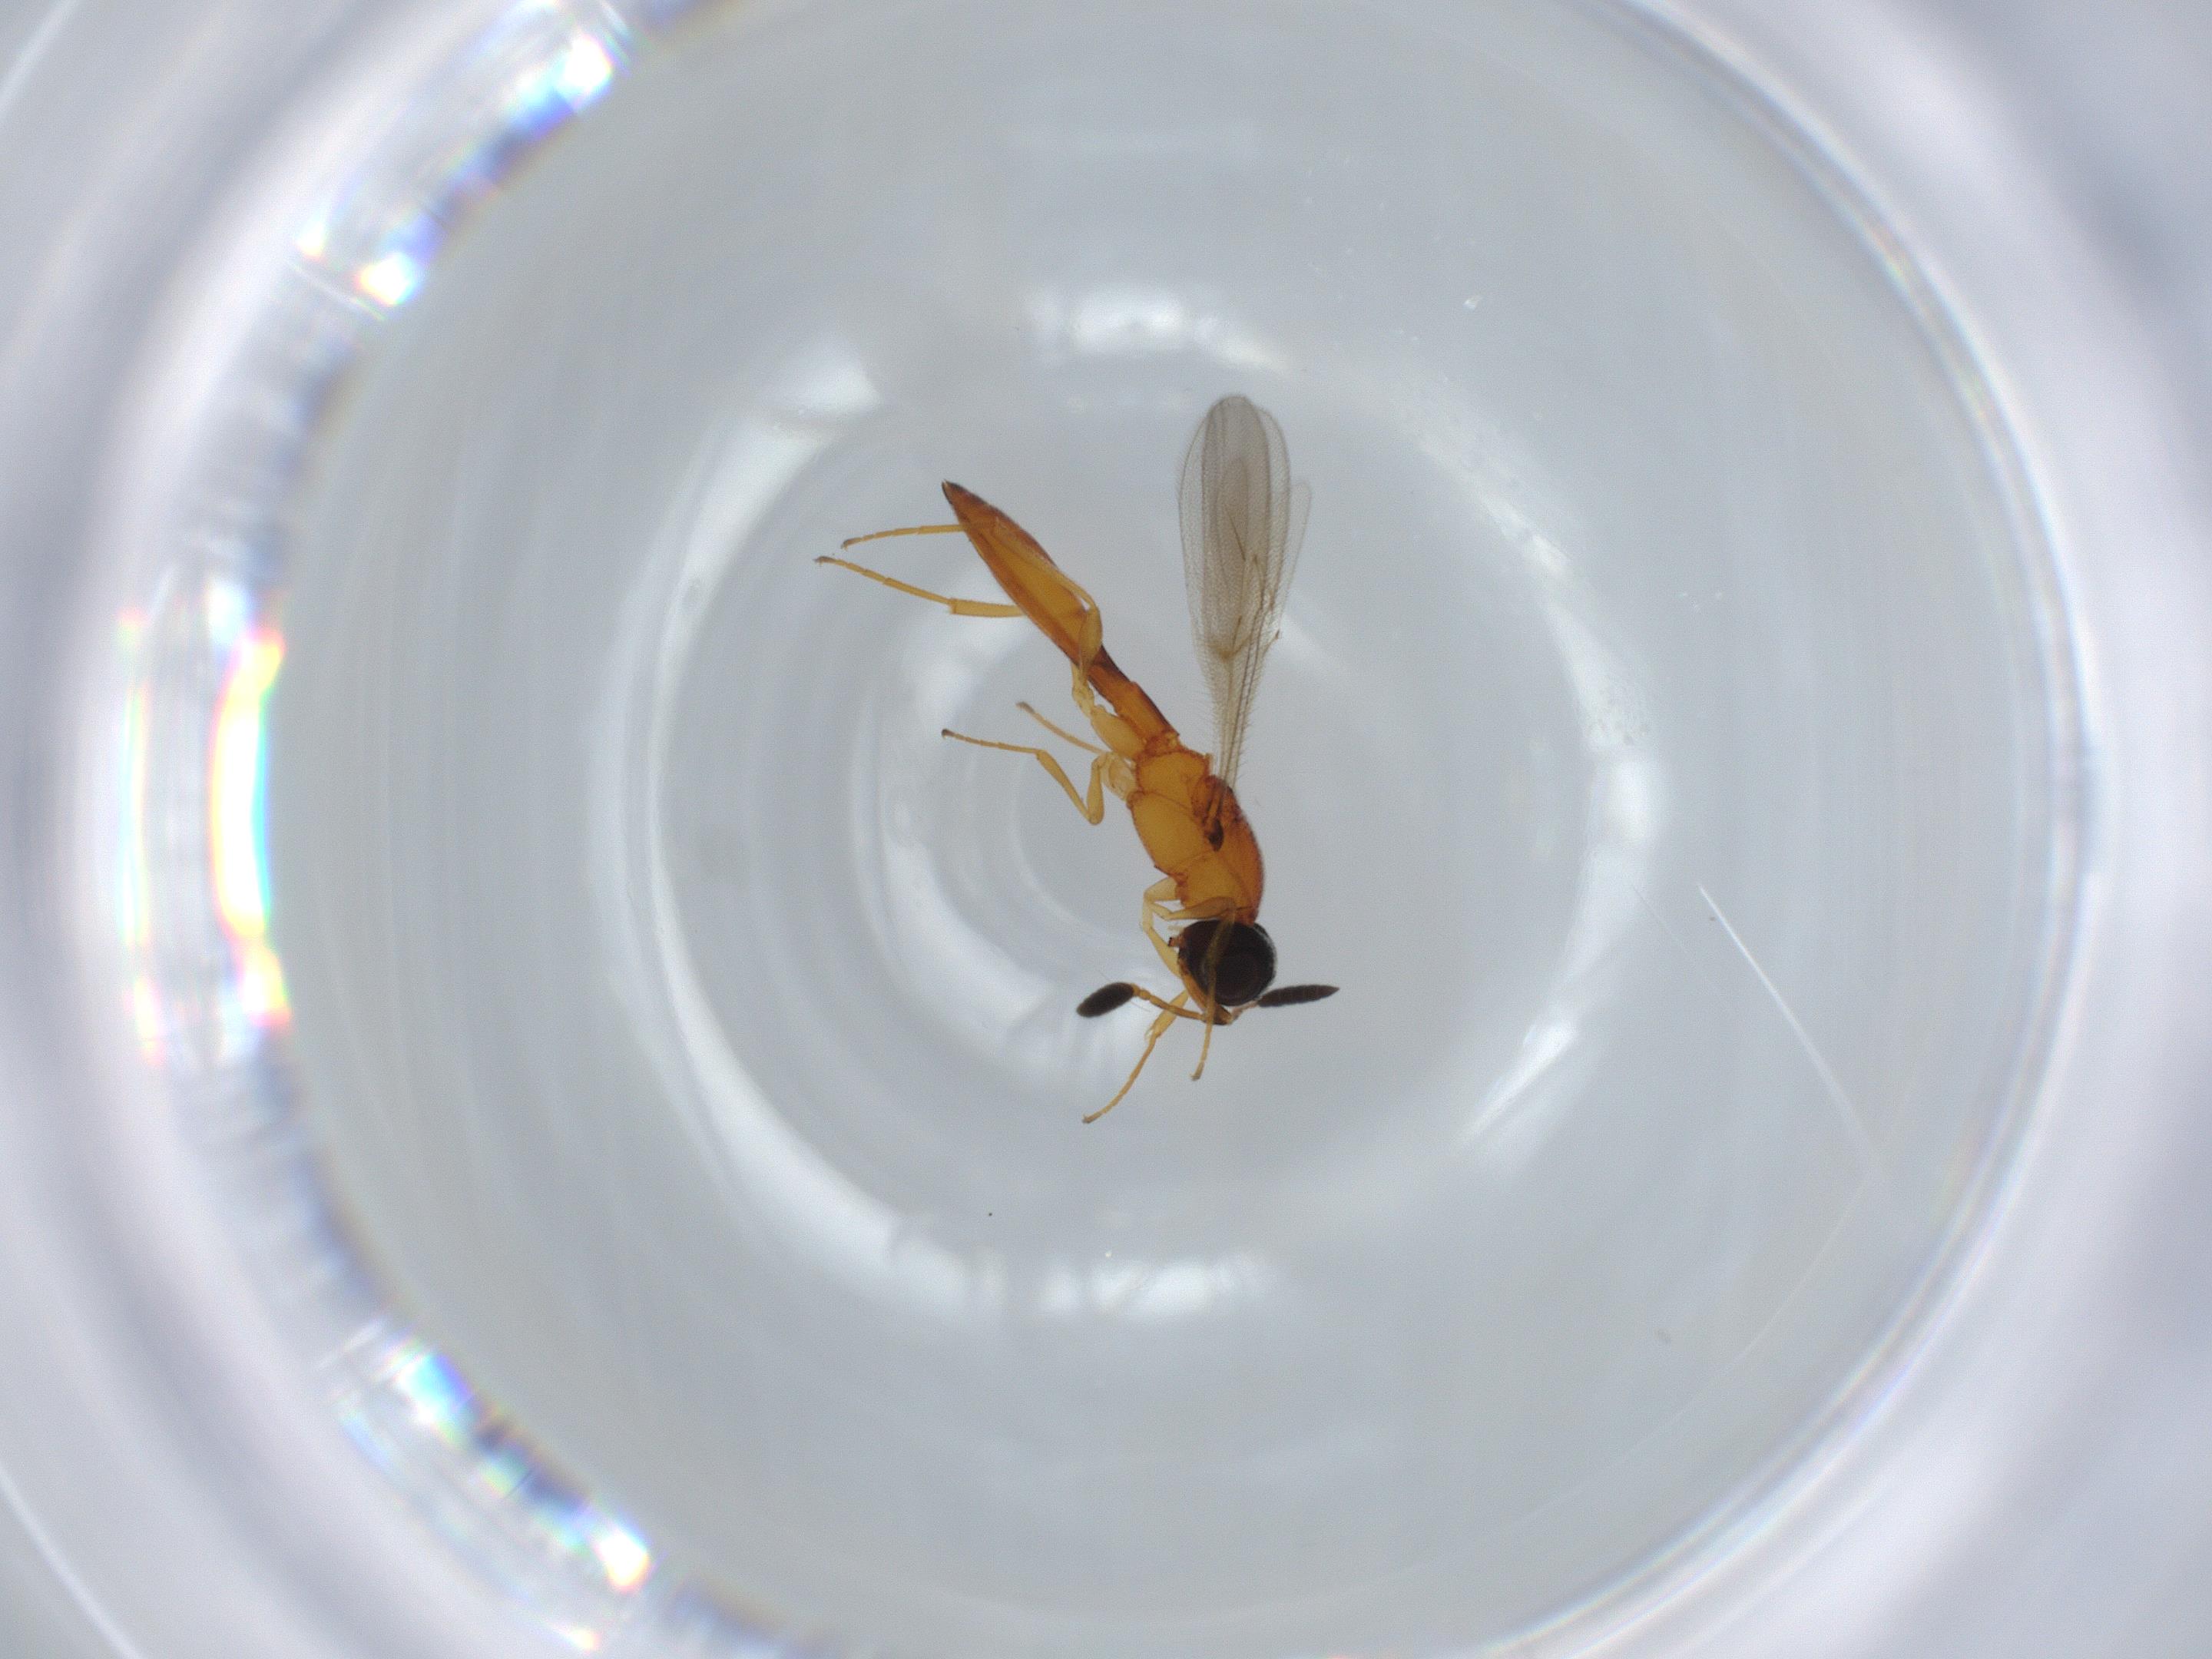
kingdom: Animalia
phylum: Arthropoda
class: Insecta
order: Hymenoptera
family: Scelionidae
